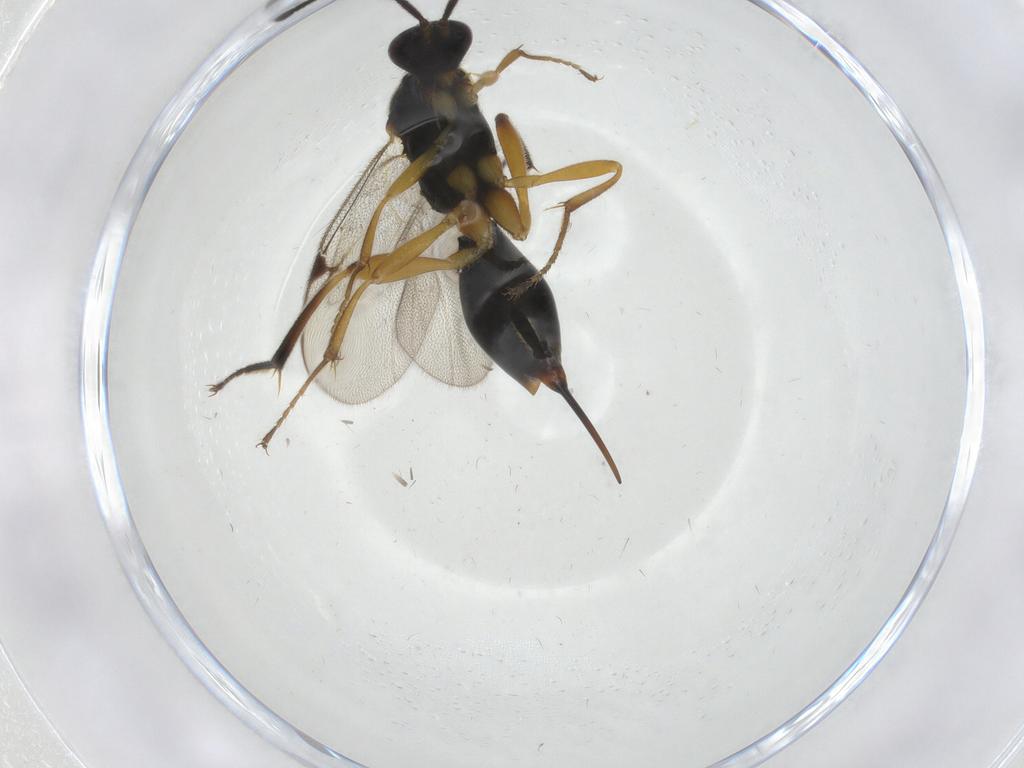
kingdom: Animalia
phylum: Arthropoda
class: Insecta
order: Hymenoptera
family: Proctotrupidae
